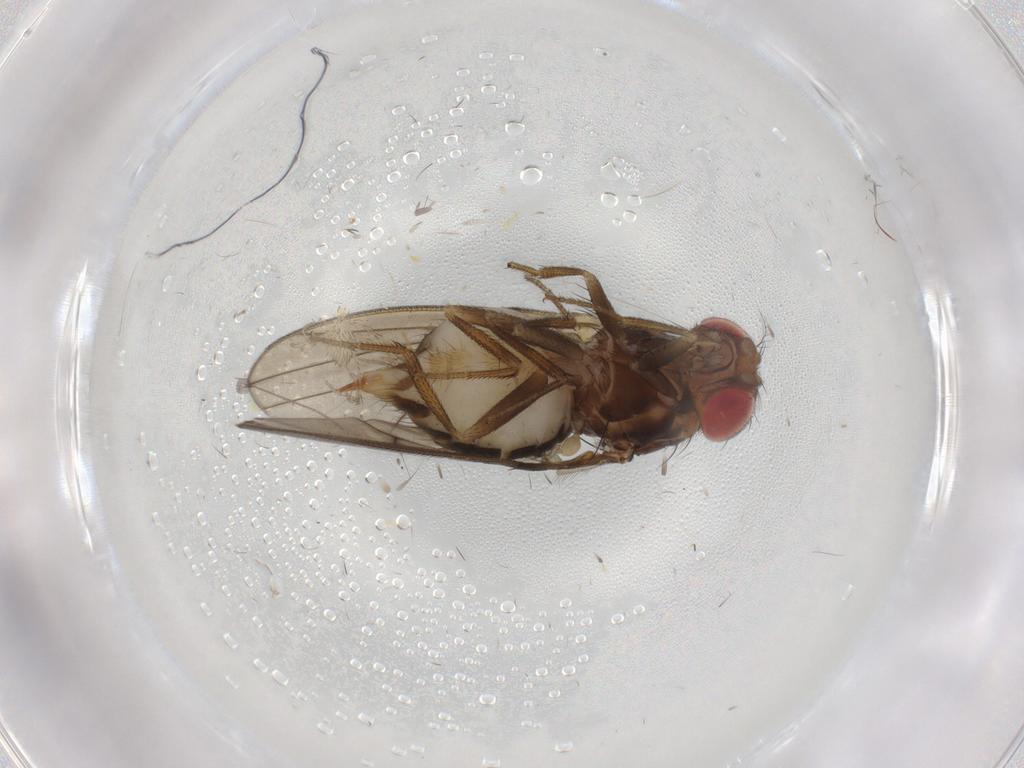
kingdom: Animalia
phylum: Arthropoda
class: Insecta
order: Diptera
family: Drosophilidae
